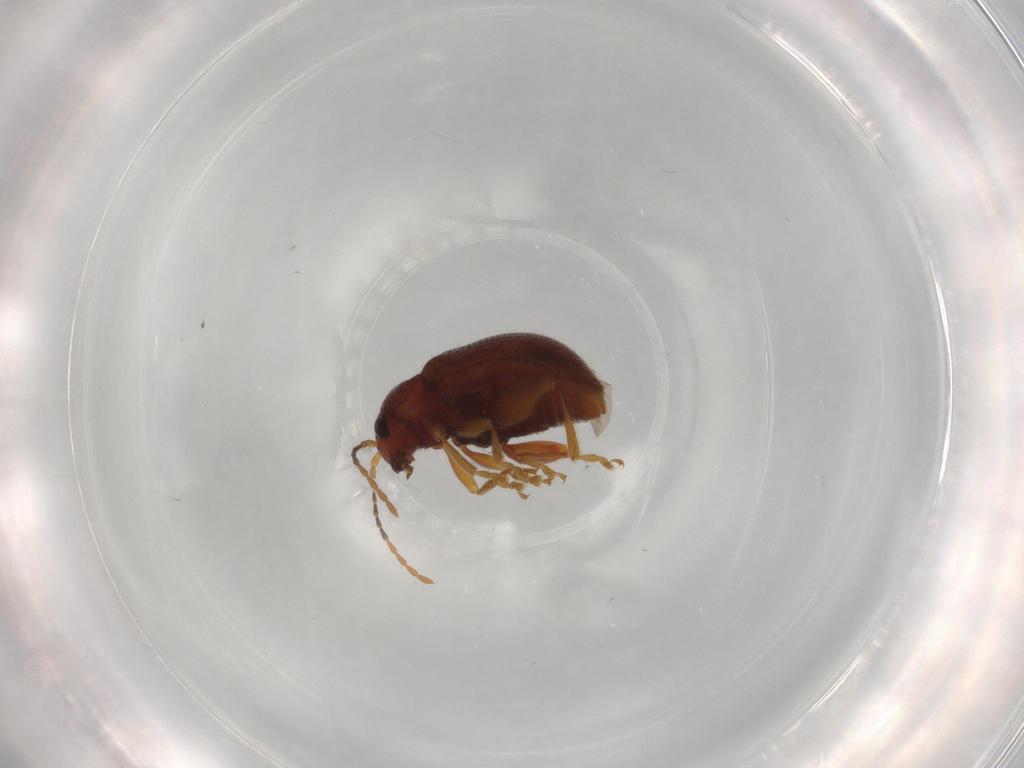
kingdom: Animalia
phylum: Arthropoda
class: Insecta
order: Coleoptera
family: Chrysomelidae
